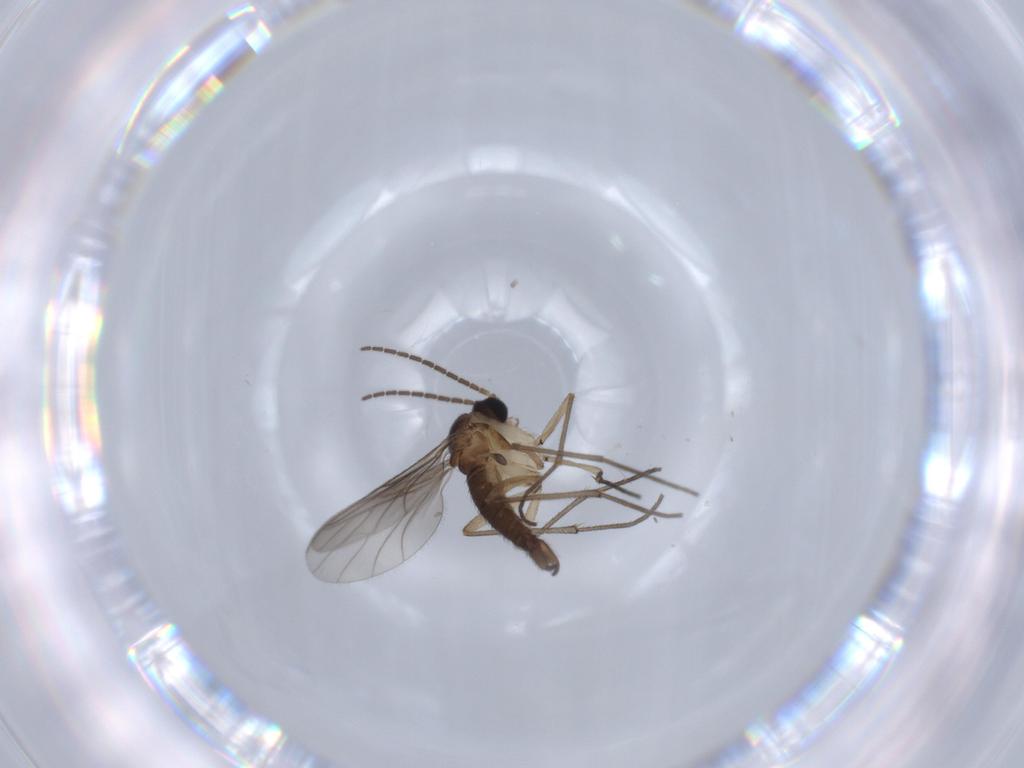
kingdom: Animalia
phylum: Arthropoda
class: Insecta
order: Diptera
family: Sciaridae
